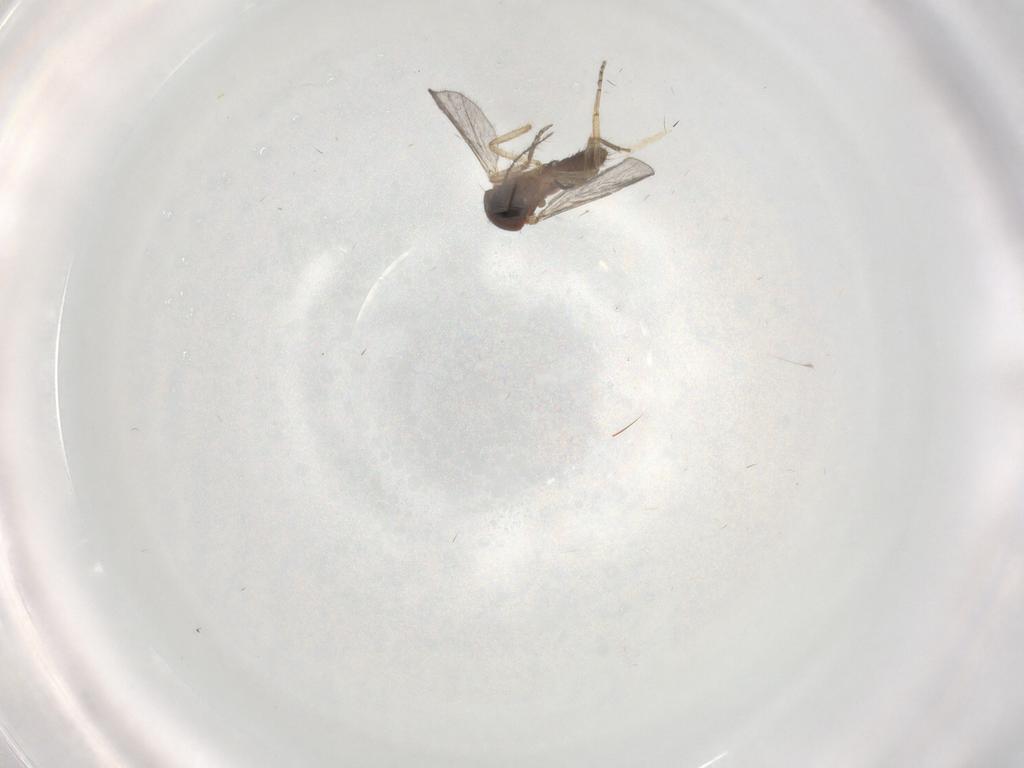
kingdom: Animalia
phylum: Arthropoda
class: Insecta
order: Diptera
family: Sciaridae
